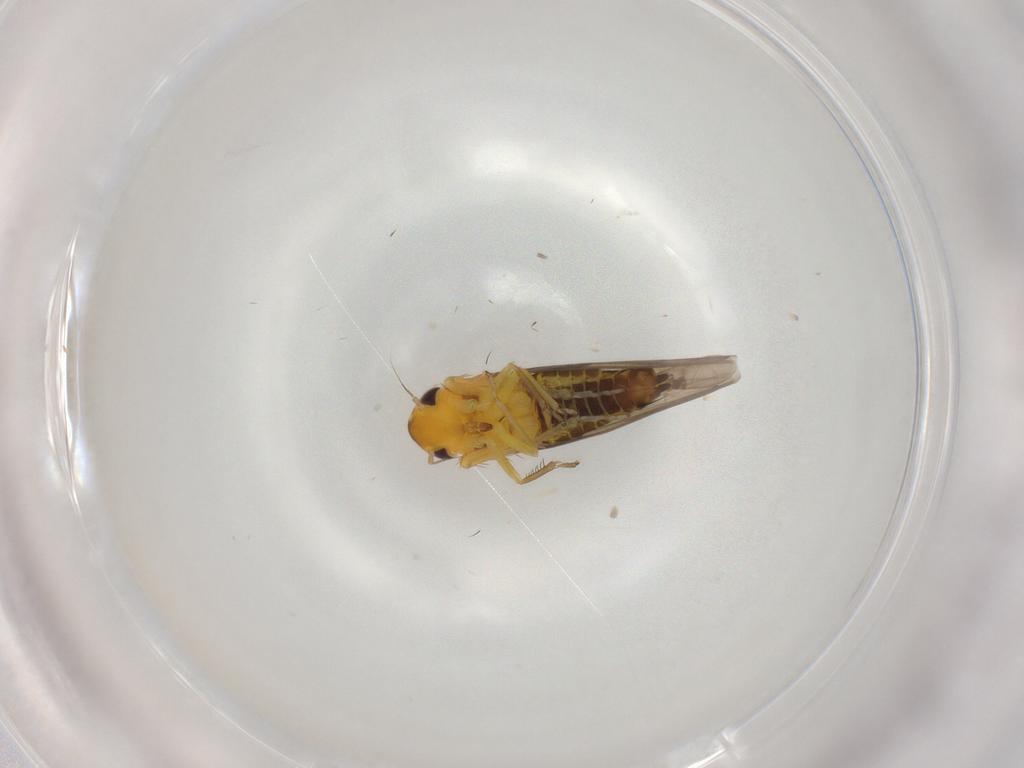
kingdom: Animalia
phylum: Arthropoda
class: Insecta
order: Hemiptera
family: Cicadellidae
